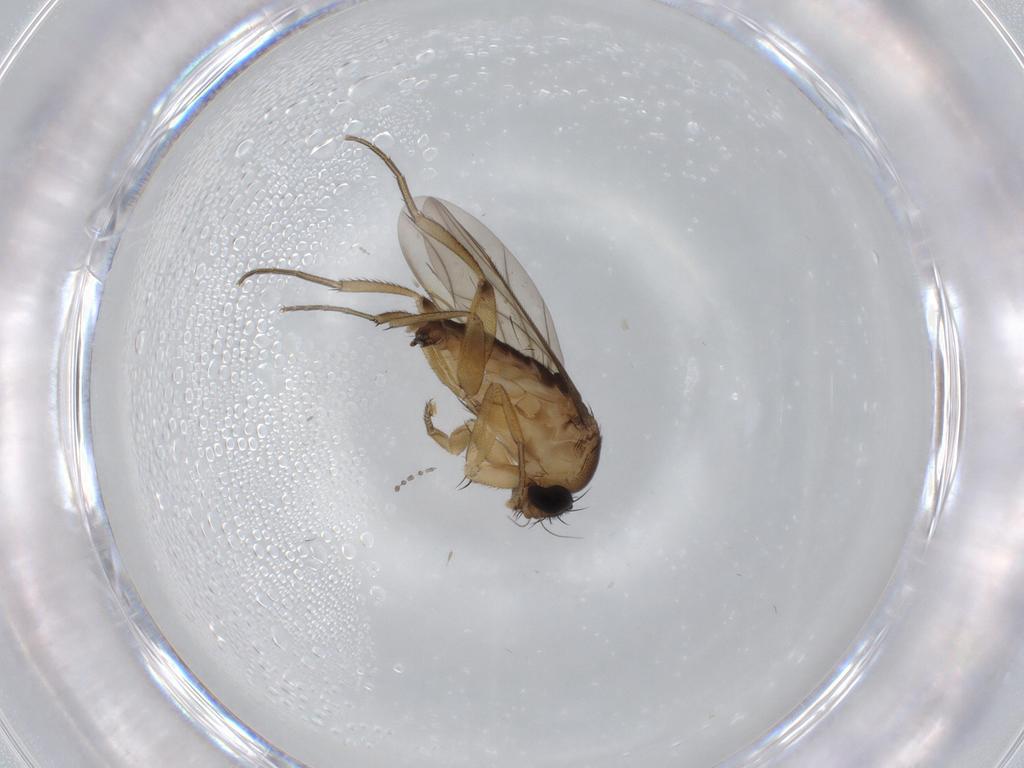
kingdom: Animalia
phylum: Arthropoda
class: Insecta
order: Diptera
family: Phoridae
